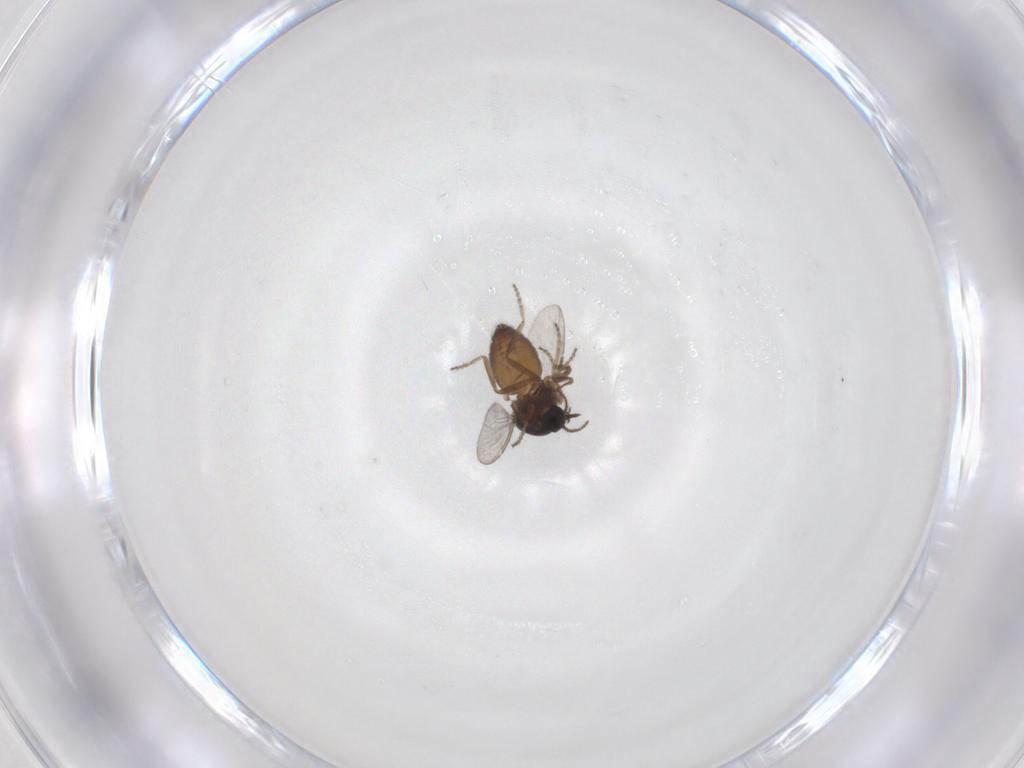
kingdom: Animalia
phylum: Arthropoda
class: Insecta
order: Diptera
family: Ceratopogonidae
